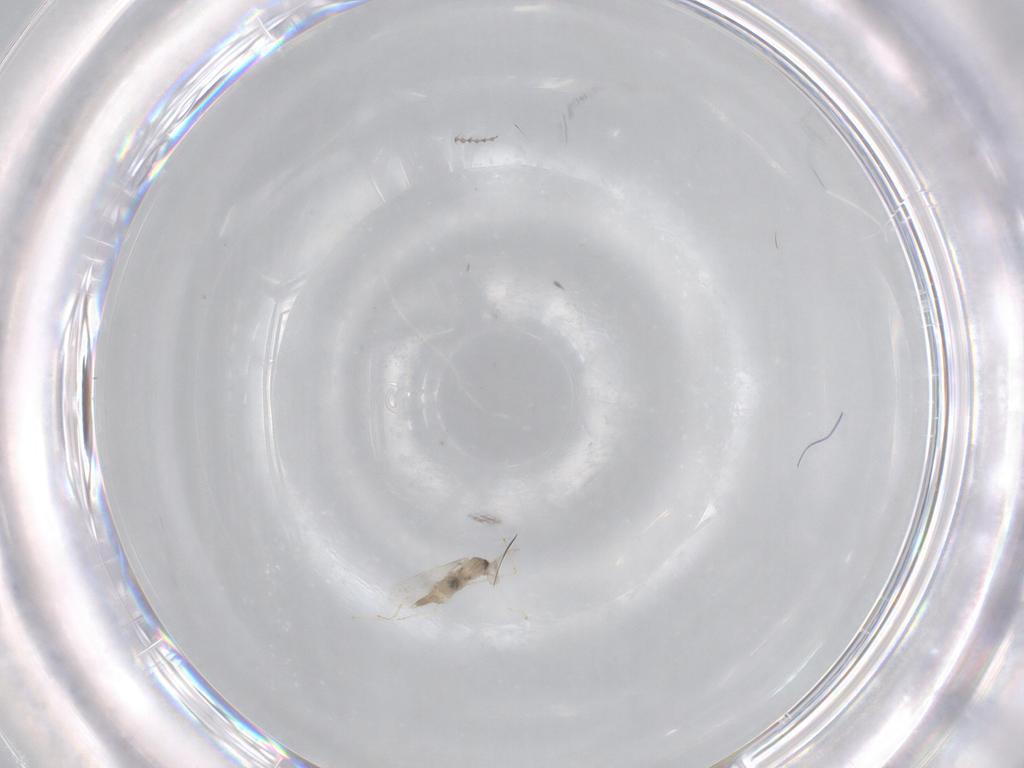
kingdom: Animalia
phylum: Arthropoda
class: Insecta
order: Diptera
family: Cecidomyiidae
